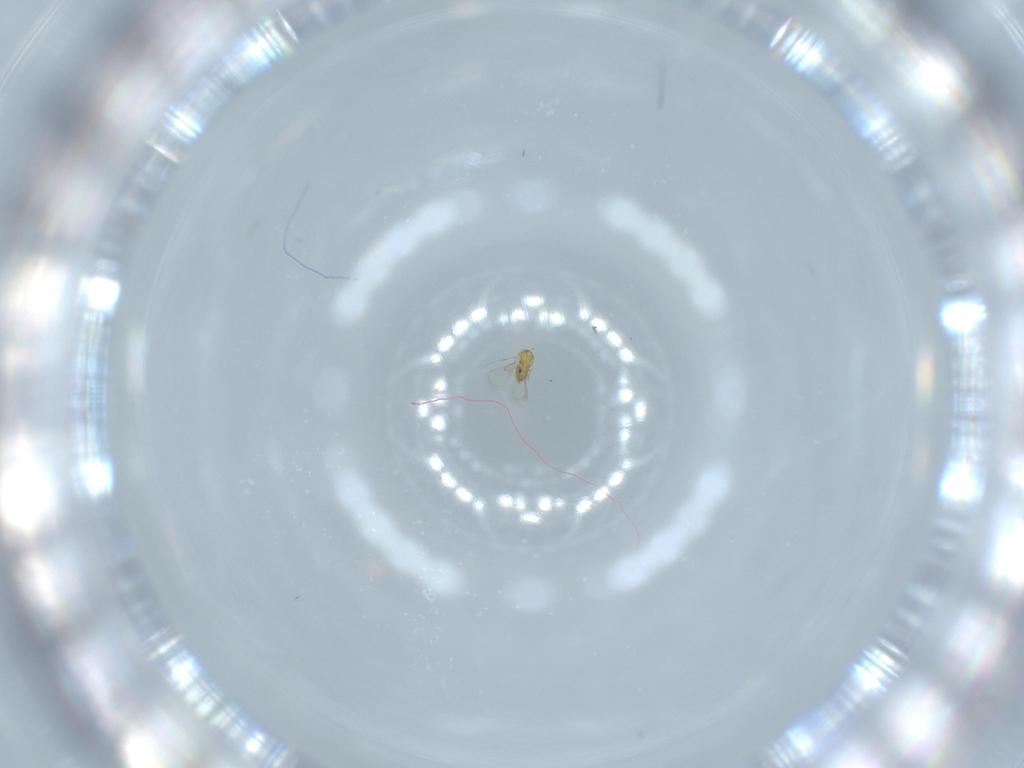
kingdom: Animalia
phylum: Arthropoda
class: Insecta
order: Hymenoptera
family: Trichogrammatidae
